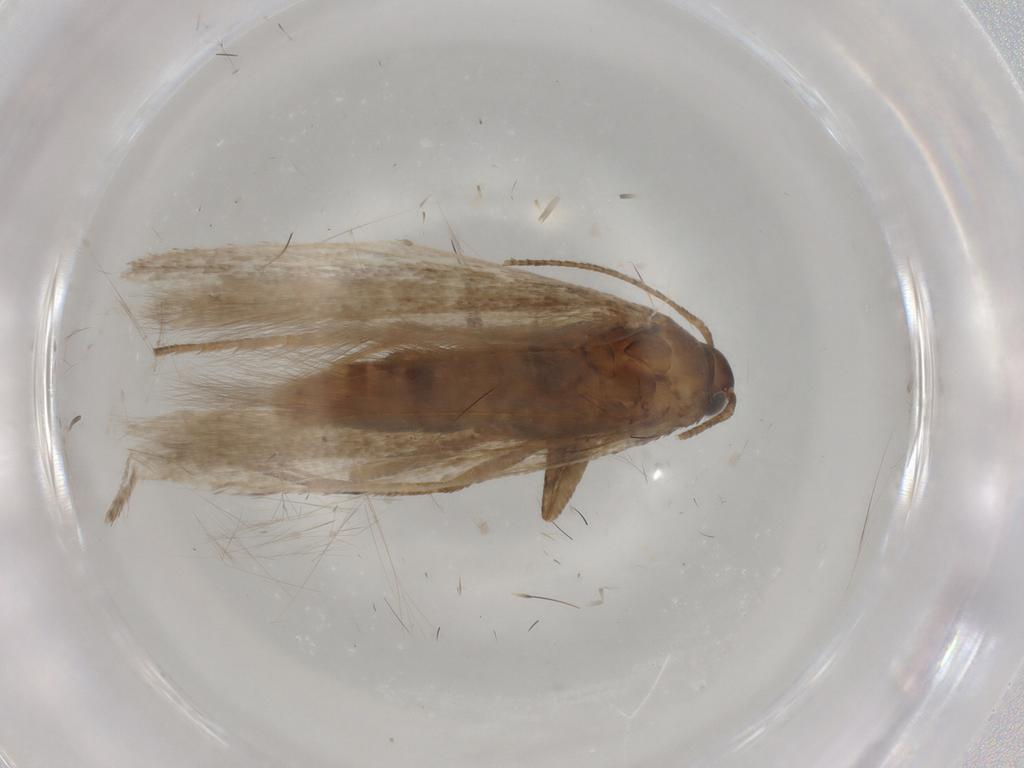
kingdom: Animalia
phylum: Arthropoda
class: Insecta
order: Lepidoptera
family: Gelechiidae
